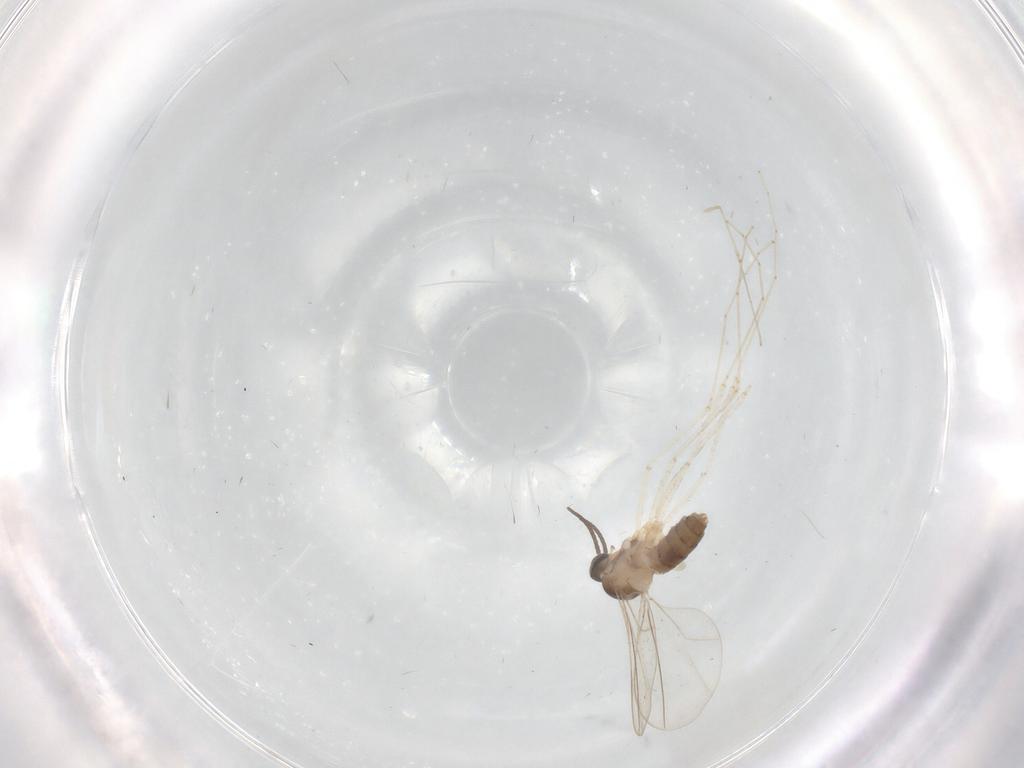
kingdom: Animalia
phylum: Arthropoda
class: Insecta
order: Diptera
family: Cecidomyiidae
